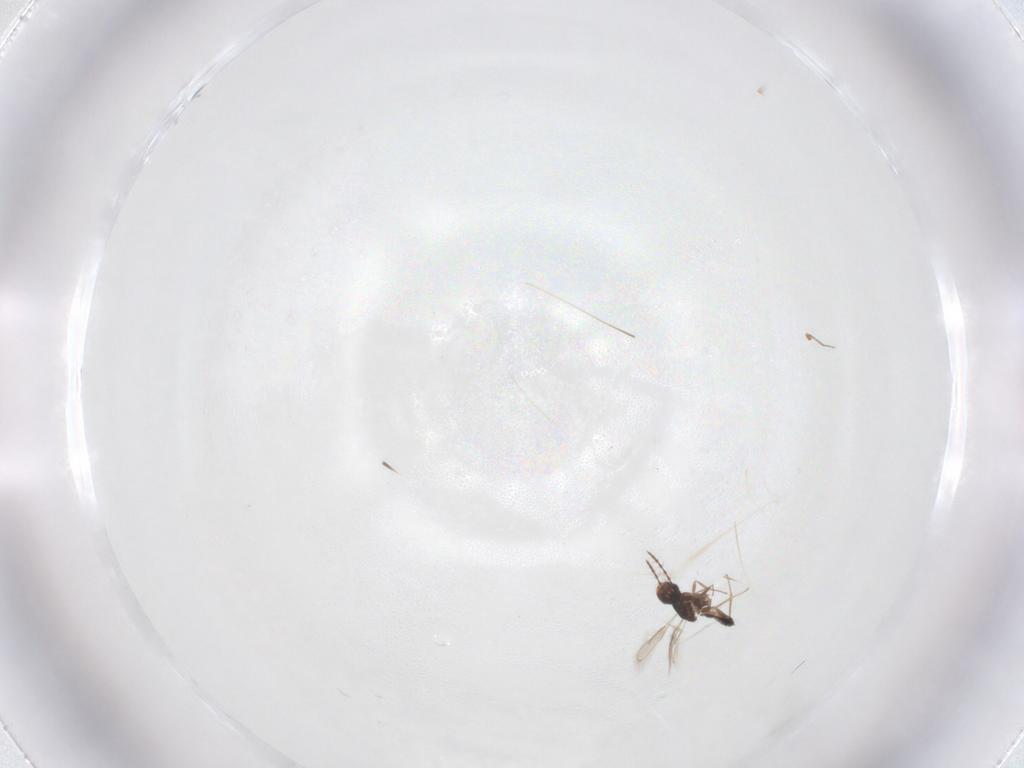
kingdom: Animalia
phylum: Arthropoda
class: Insecta
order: Hymenoptera
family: Pteromalidae
